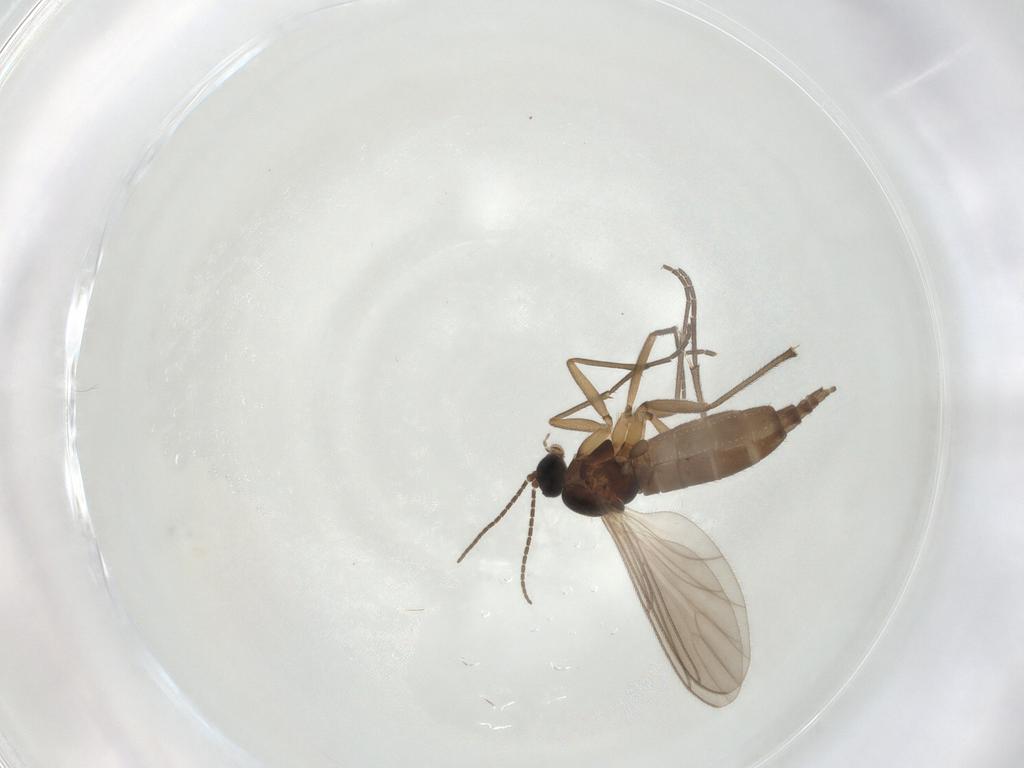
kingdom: Animalia
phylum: Arthropoda
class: Insecta
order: Diptera
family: Sciaridae
